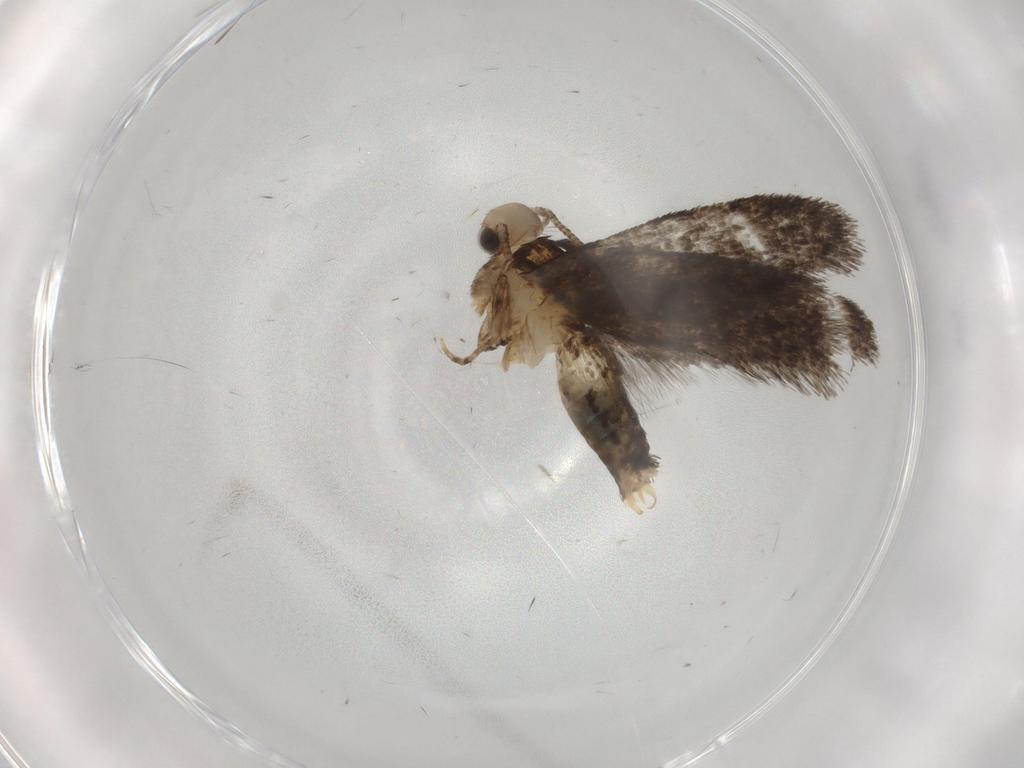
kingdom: Animalia
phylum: Arthropoda
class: Insecta
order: Lepidoptera
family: Tineidae
